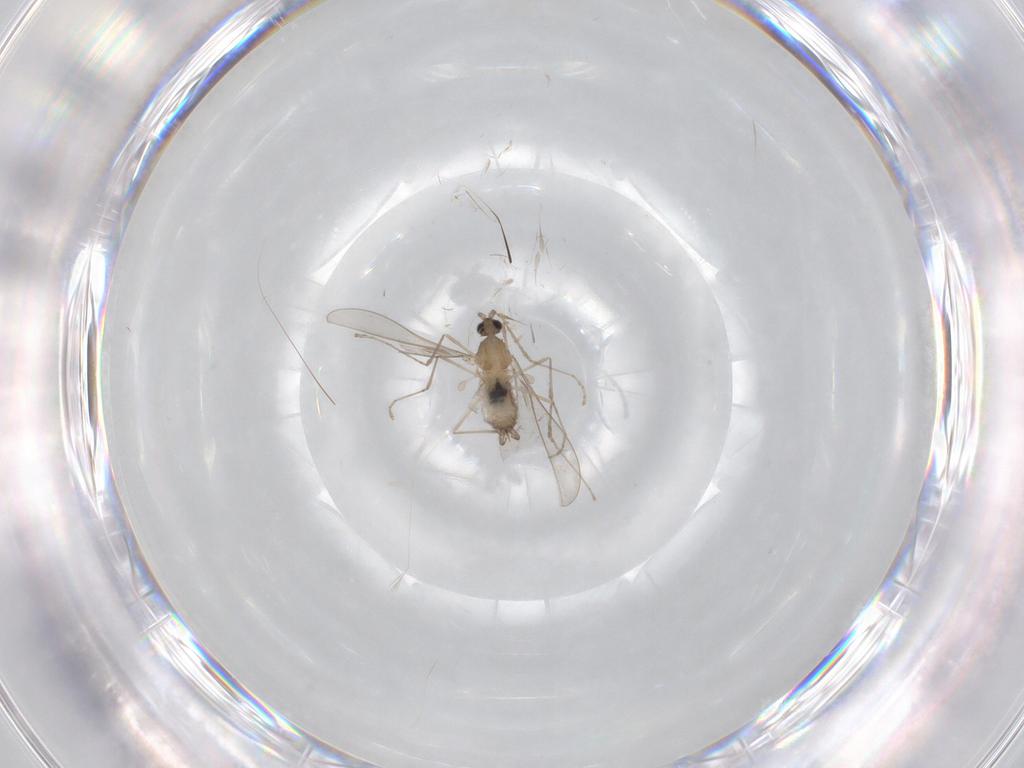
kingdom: Animalia
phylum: Arthropoda
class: Insecta
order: Diptera
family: Cecidomyiidae
